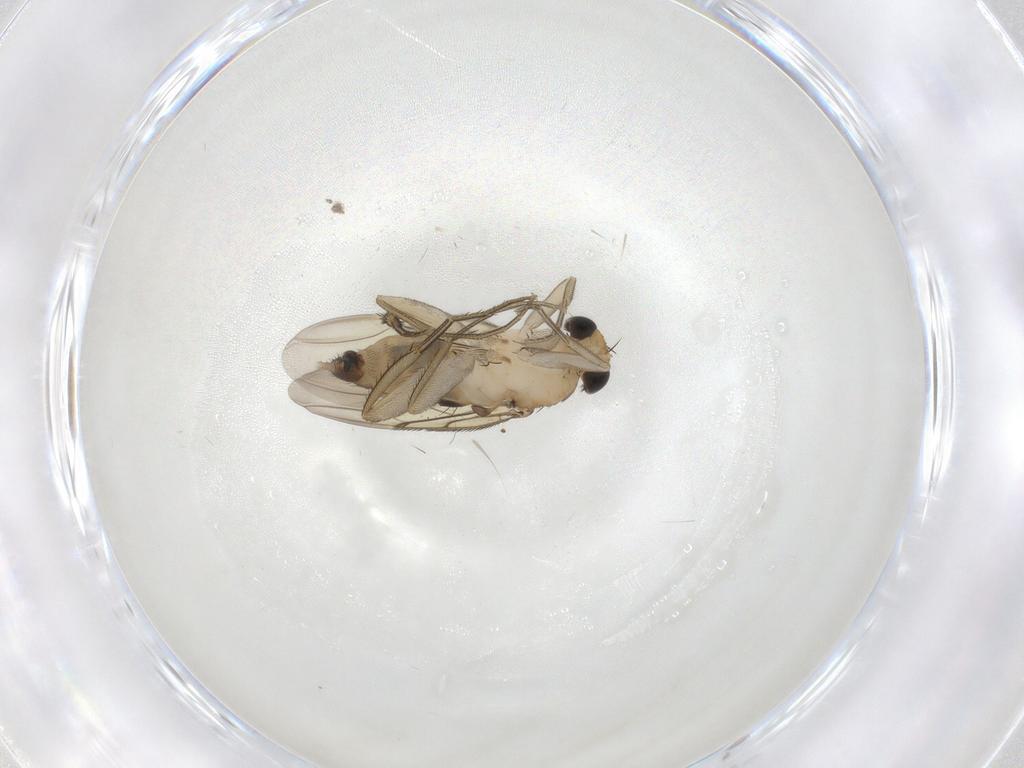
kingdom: Animalia
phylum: Arthropoda
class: Insecta
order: Diptera
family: Phoridae
